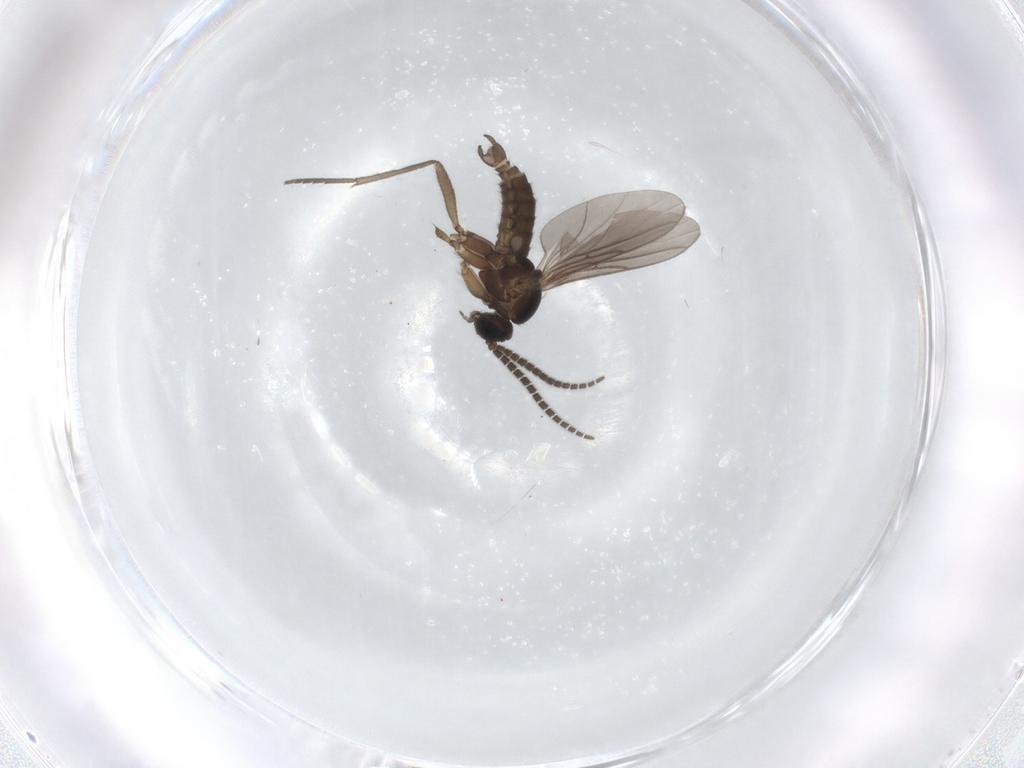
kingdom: Animalia
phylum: Arthropoda
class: Insecta
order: Diptera
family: Sciaridae
